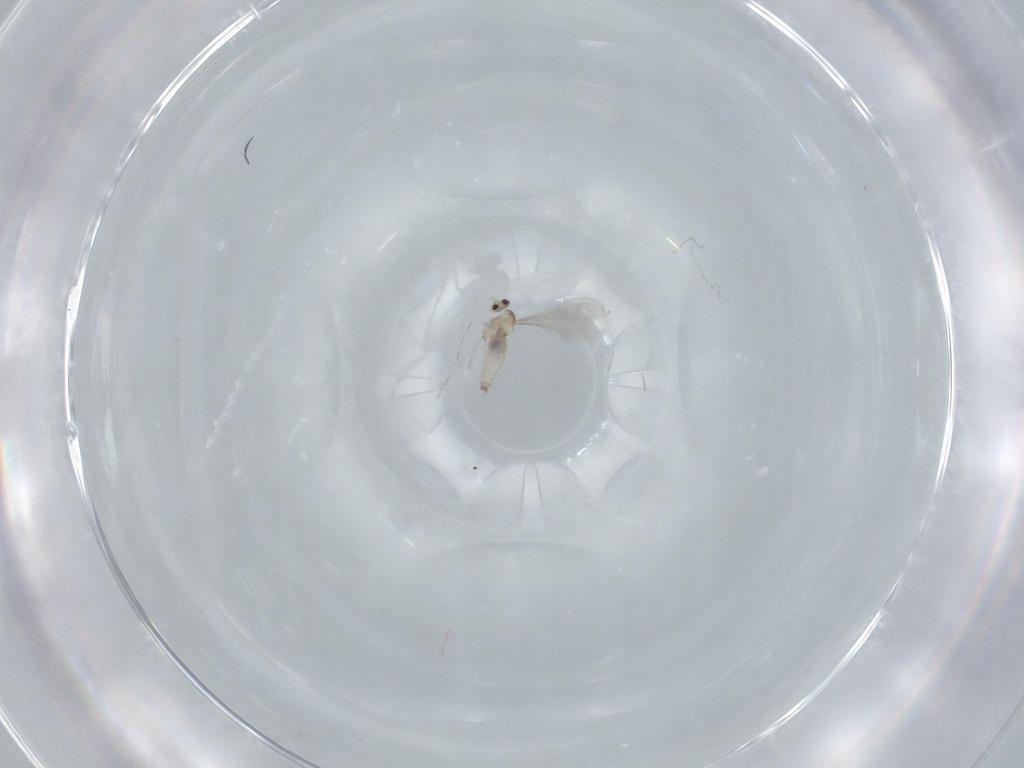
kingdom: Animalia
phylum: Arthropoda
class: Insecta
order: Diptera
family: Cecidomyiidae
